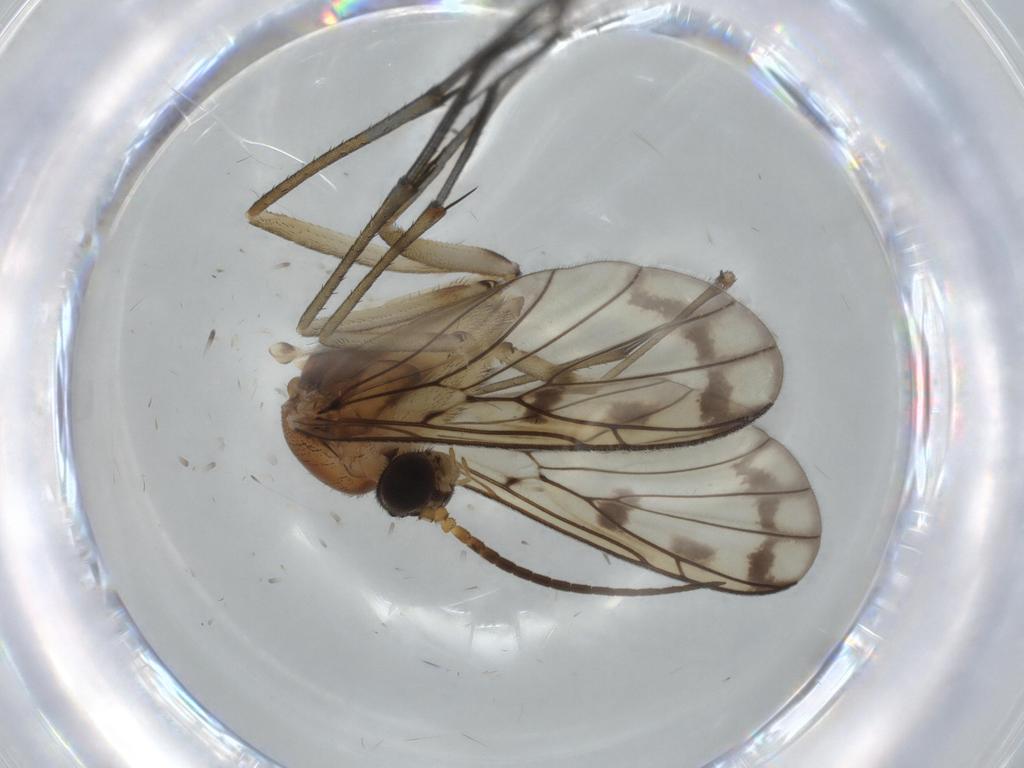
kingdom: Animalia
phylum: Arthropoda
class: Insecta
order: Diptera
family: Cecidomyiidae
